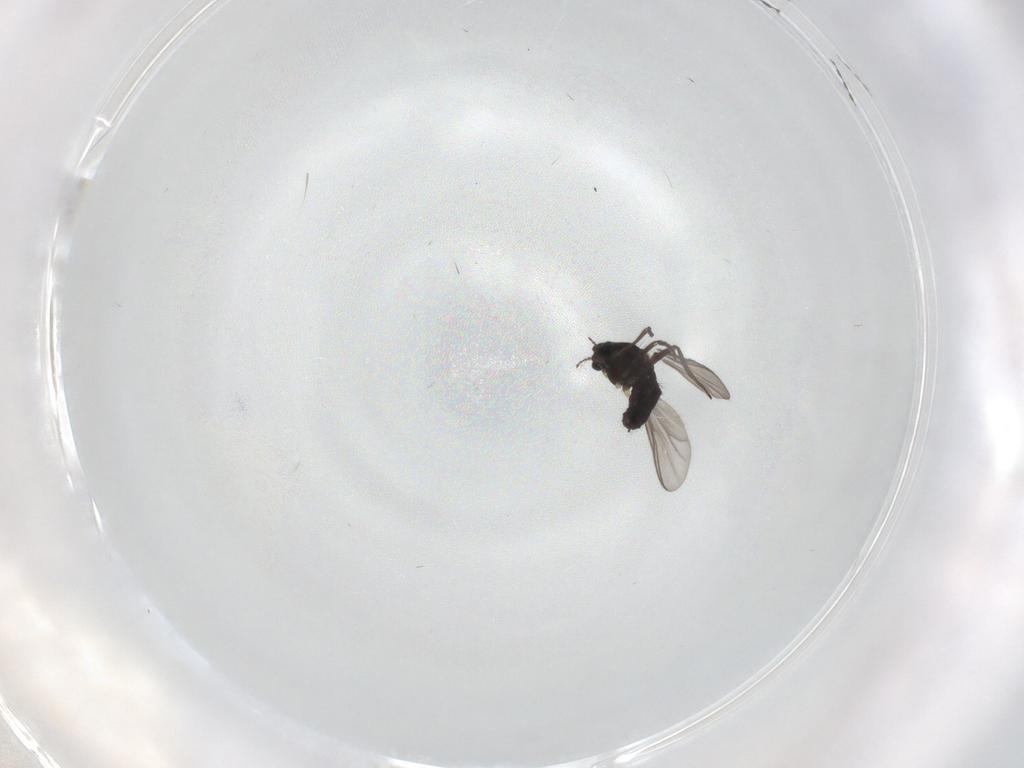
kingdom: Animalia
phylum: Arthropoda
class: Insecta
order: Diptera
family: Chironomidae
